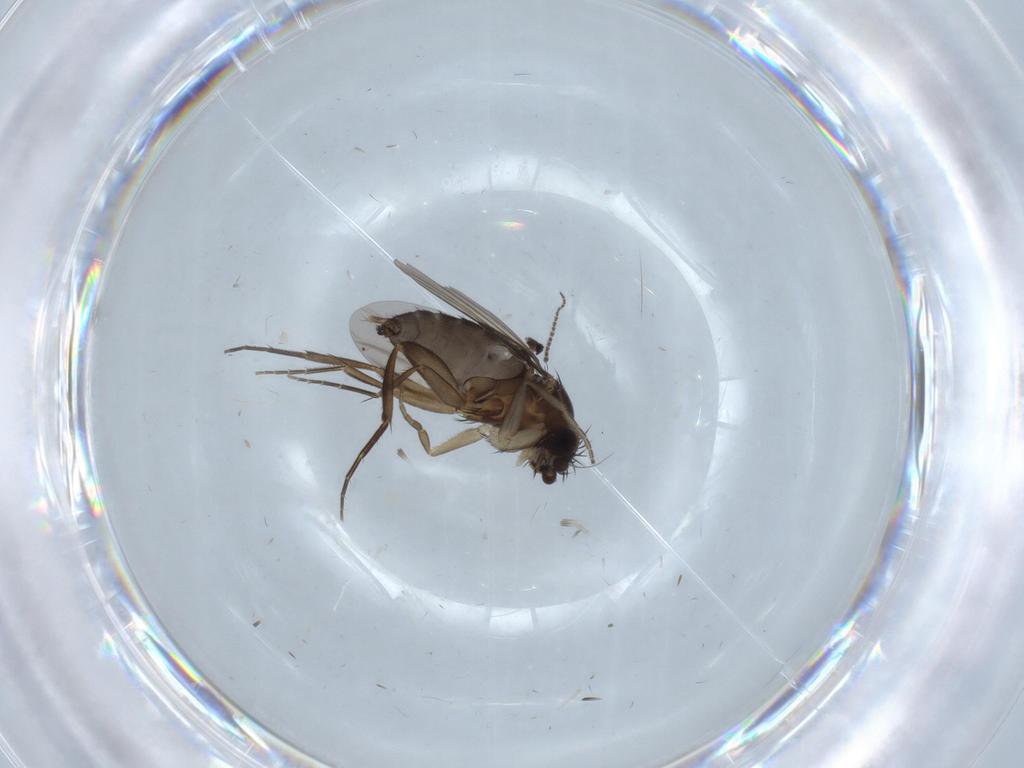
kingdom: Animalia
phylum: Arthropoda
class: Insecta
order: Diptera
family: Sciaridae
